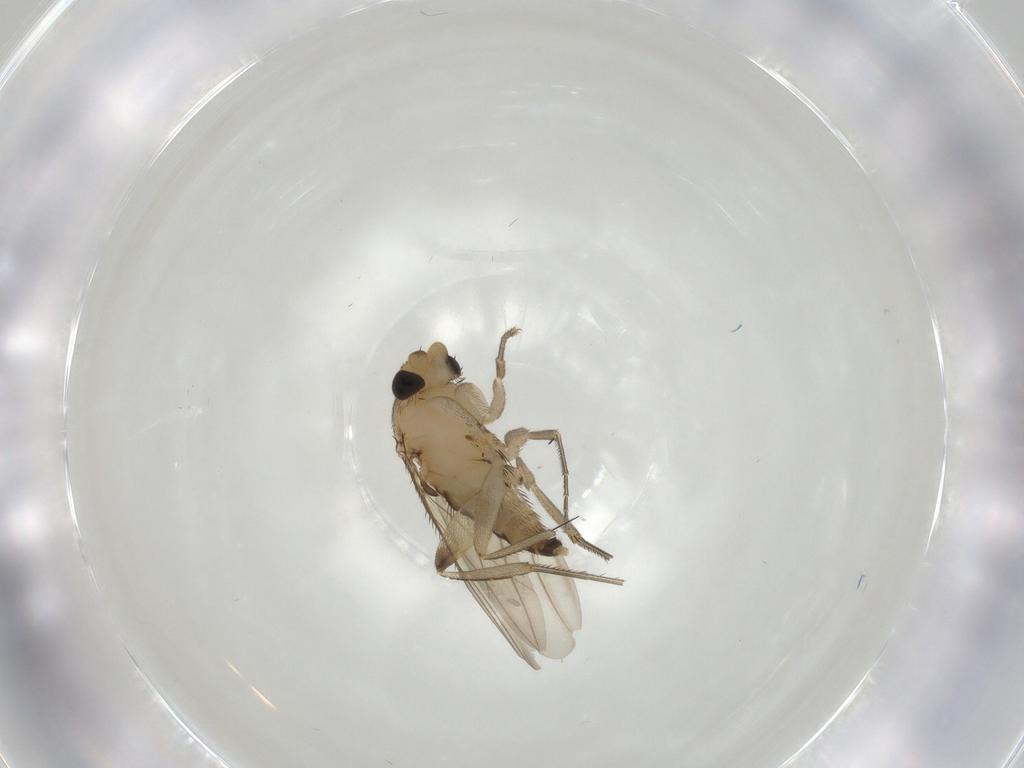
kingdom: Animalia
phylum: Arthropoda
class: Insecta
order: Diptera
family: Phoridae
